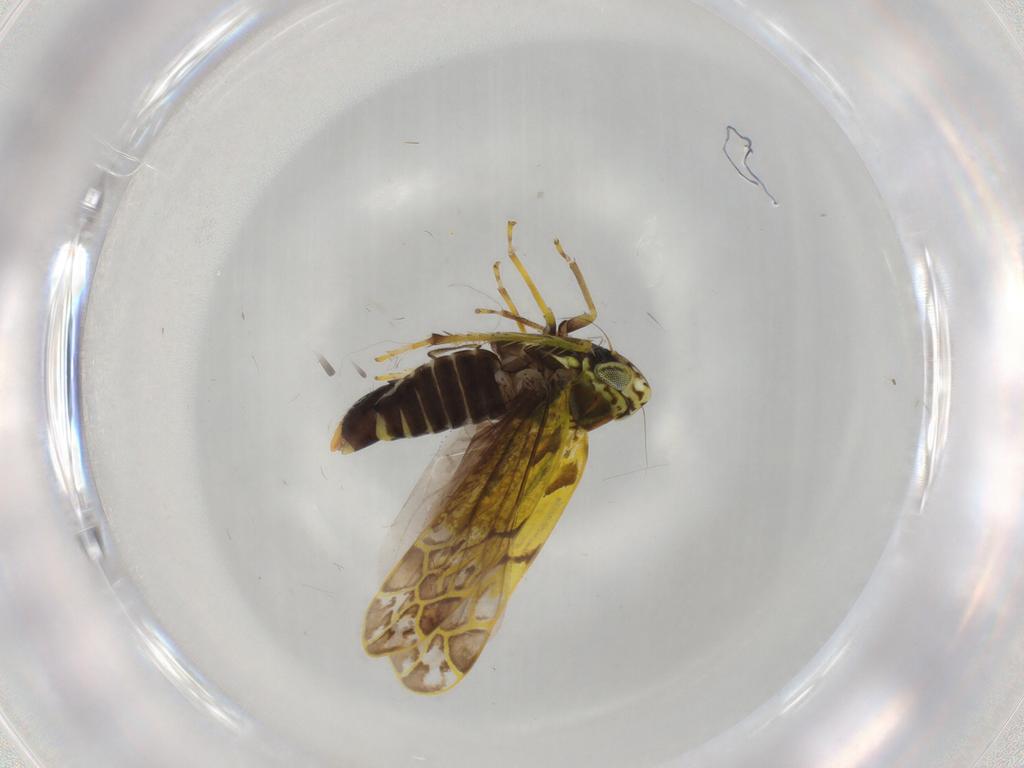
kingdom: Animalia
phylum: Arthropoda
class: Insecta
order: Hemiptera
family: Cicadellidae
